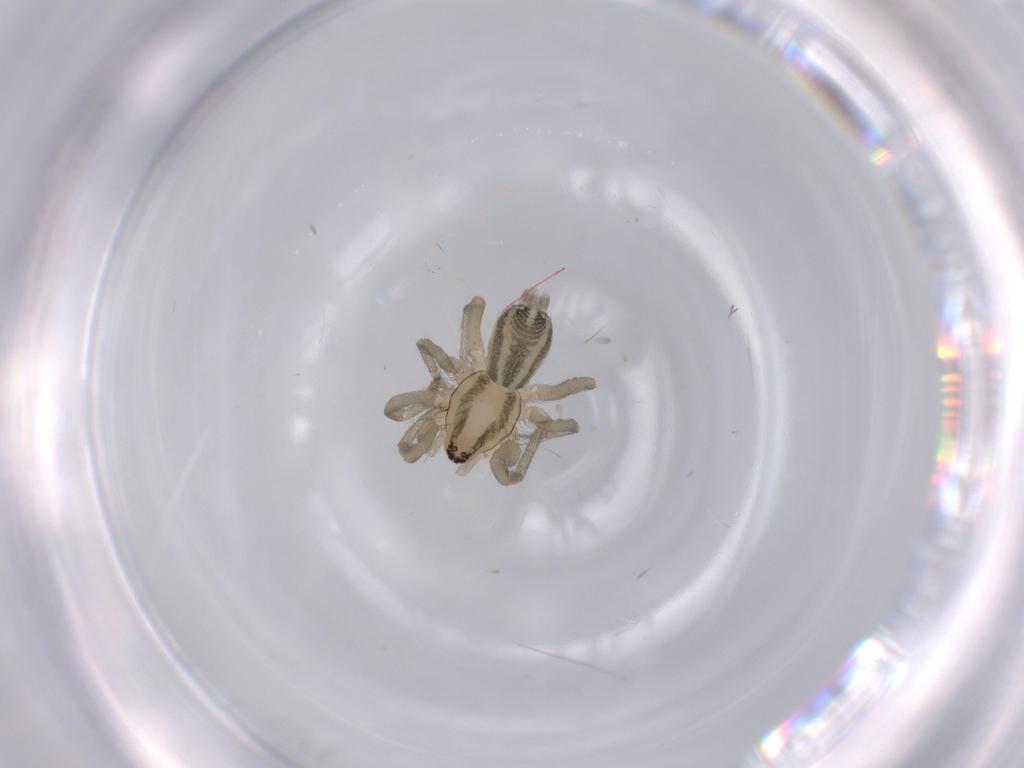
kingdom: Animalia
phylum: Arthropoda
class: Arachnida
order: Araneae
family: Gnaphosidae
